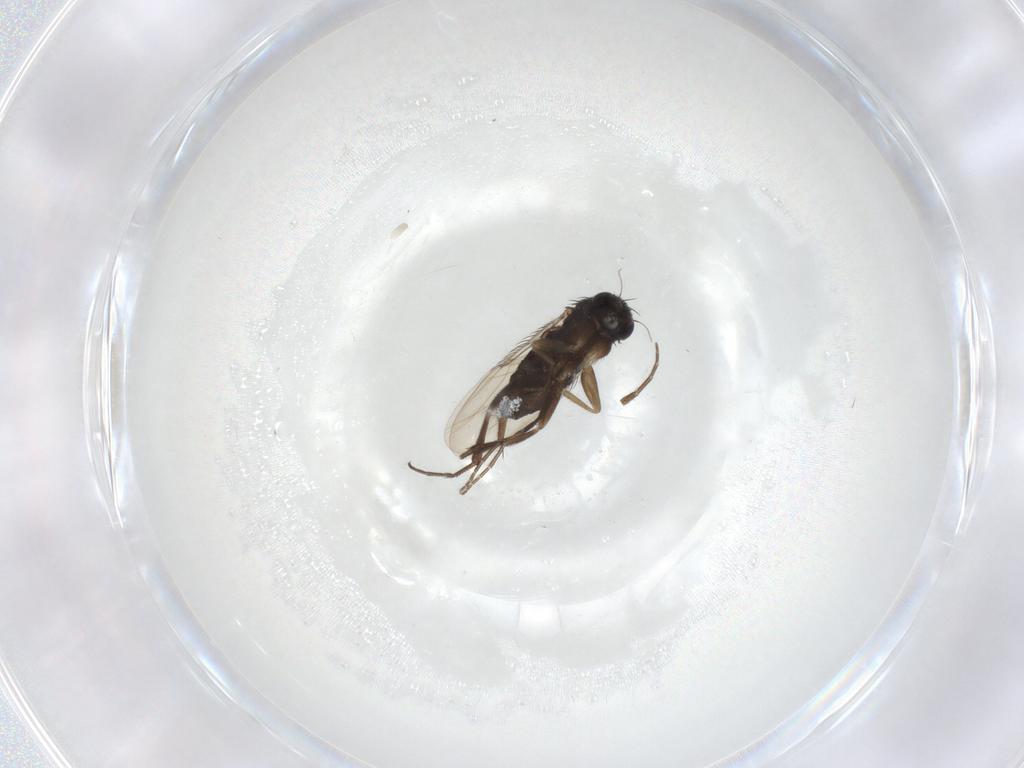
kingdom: Animalia
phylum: Arthropoda
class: Insecta
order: Diptera
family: Phoridae
